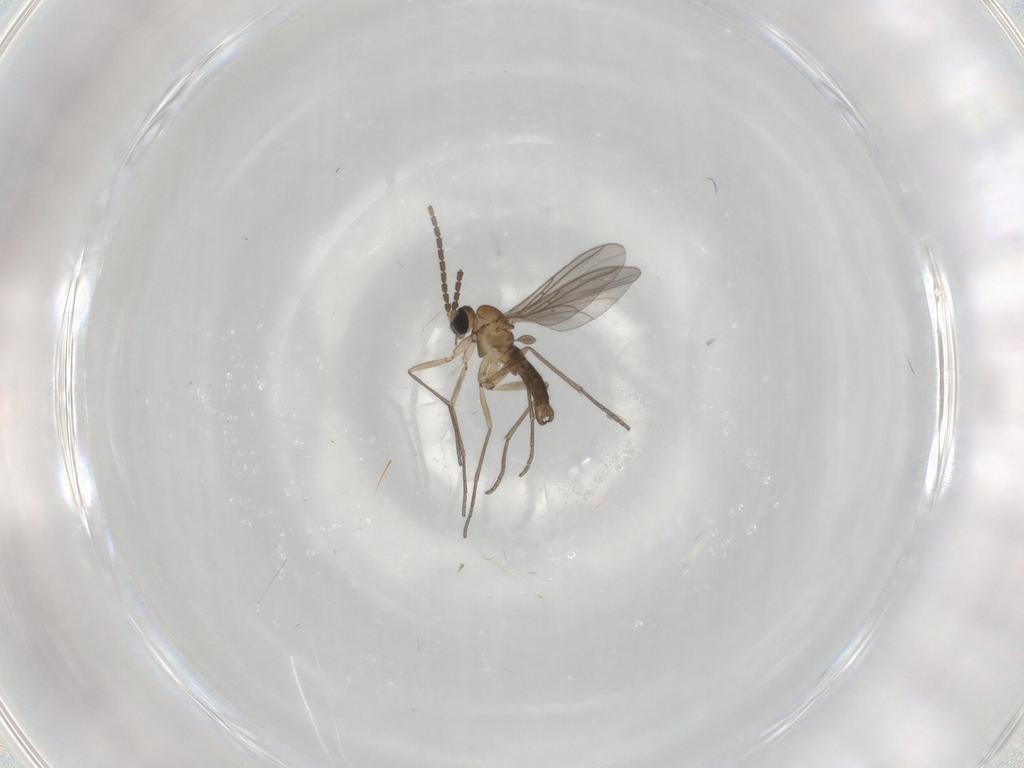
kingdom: Animalia
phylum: Arthropoda
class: Insecta
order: Diptera
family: Sciaridae
